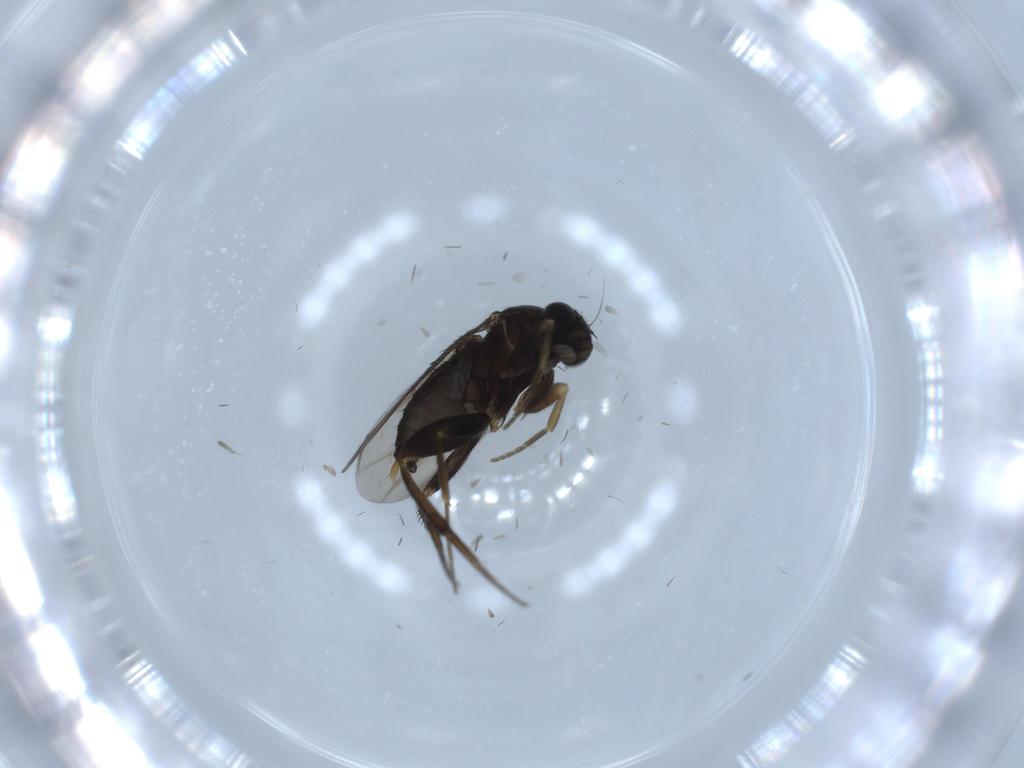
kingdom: Animalia
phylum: Arthropoda
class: Insecta
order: Diptera
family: Phoridae
